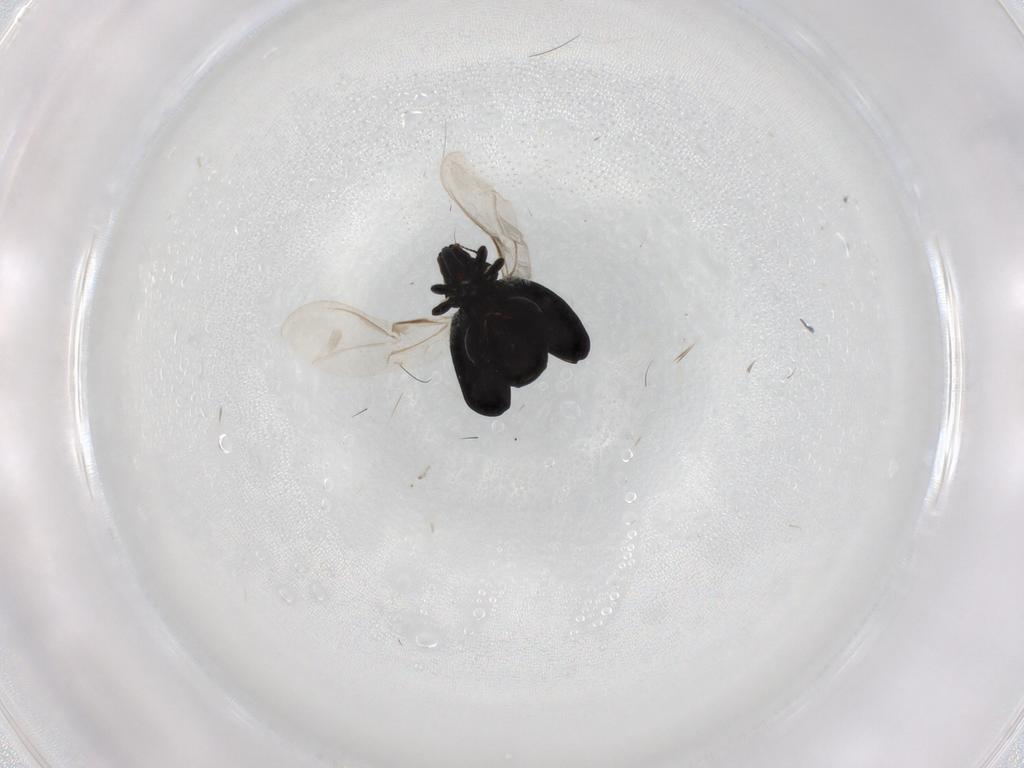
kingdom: Animalia
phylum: Arthropoda
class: Insecta
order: Coleoptera
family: Curculionidae
